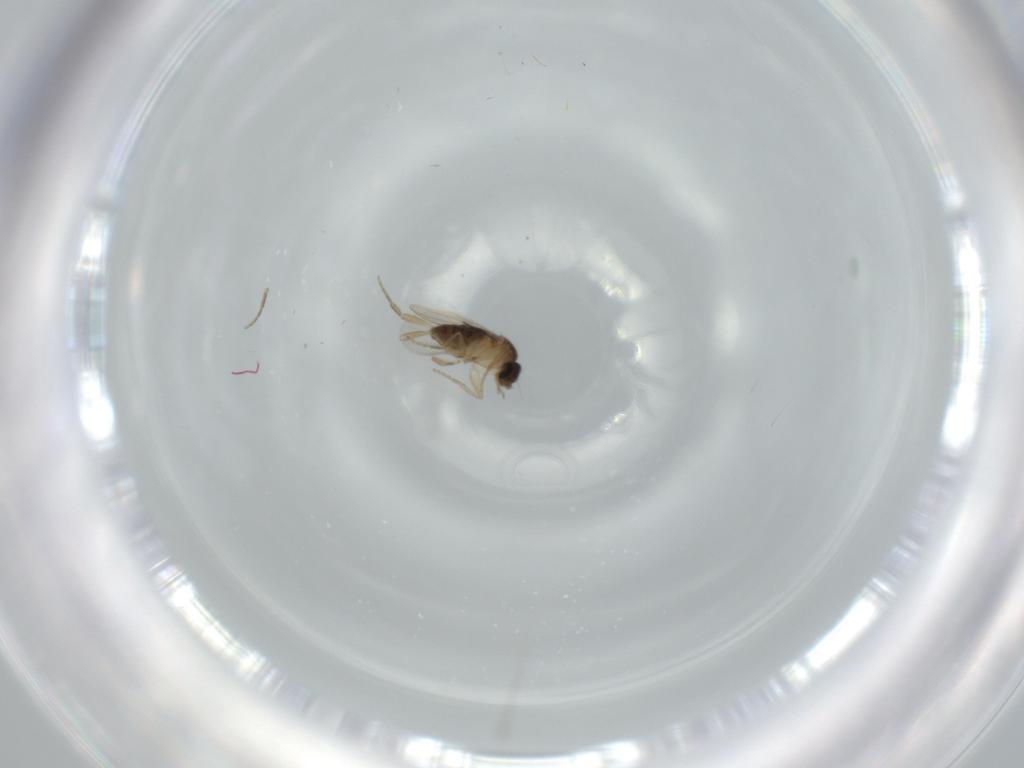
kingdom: Animalia
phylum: Arthropoda
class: Insecta
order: Diptera
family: Phoridae
